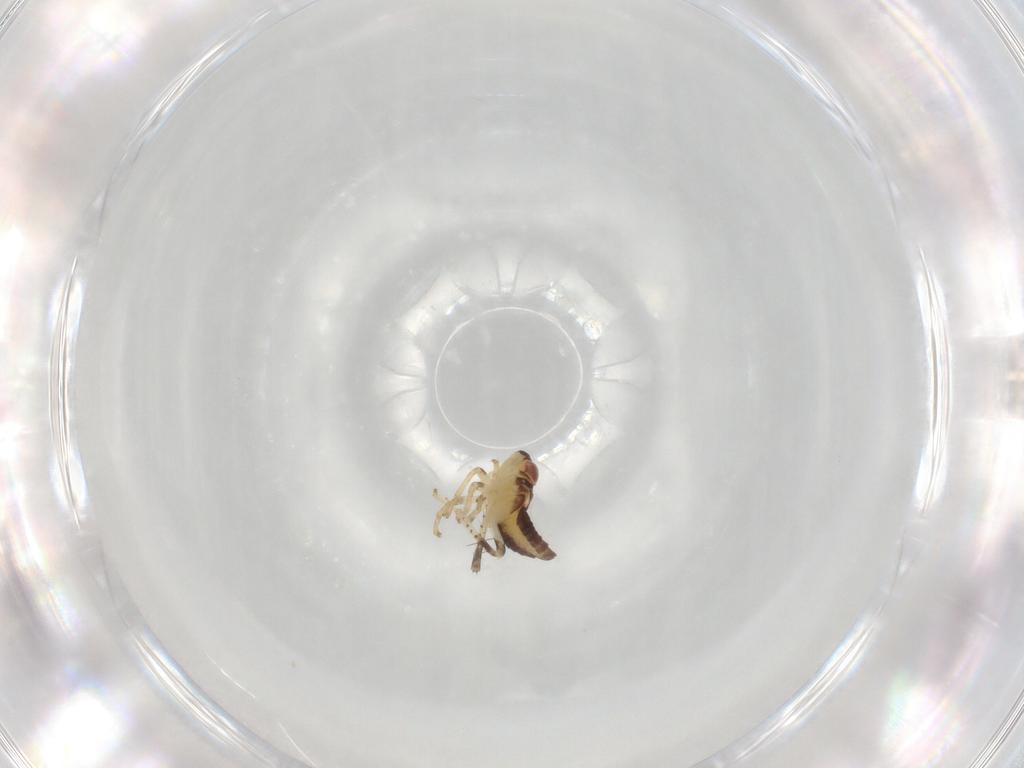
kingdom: Animalia
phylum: Arthropoda
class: Insecta
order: Hemiptera
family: Cicadellidae
